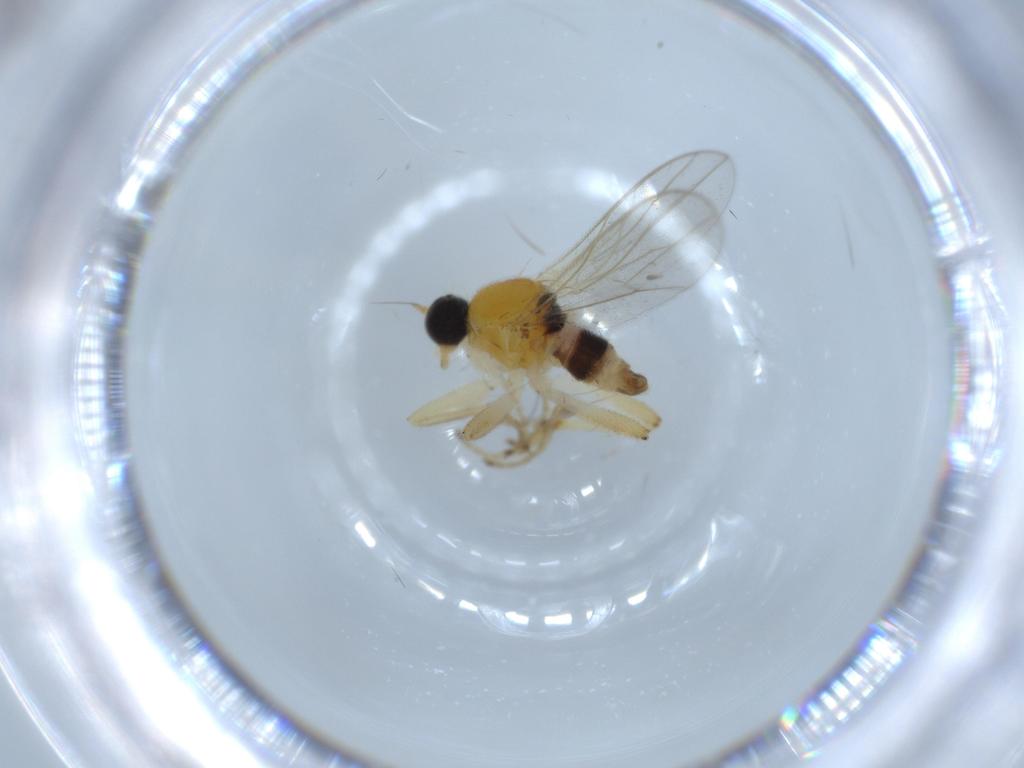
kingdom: Animalia
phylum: Arthropoda
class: Insecta
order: Diptera
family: Hybotidae
